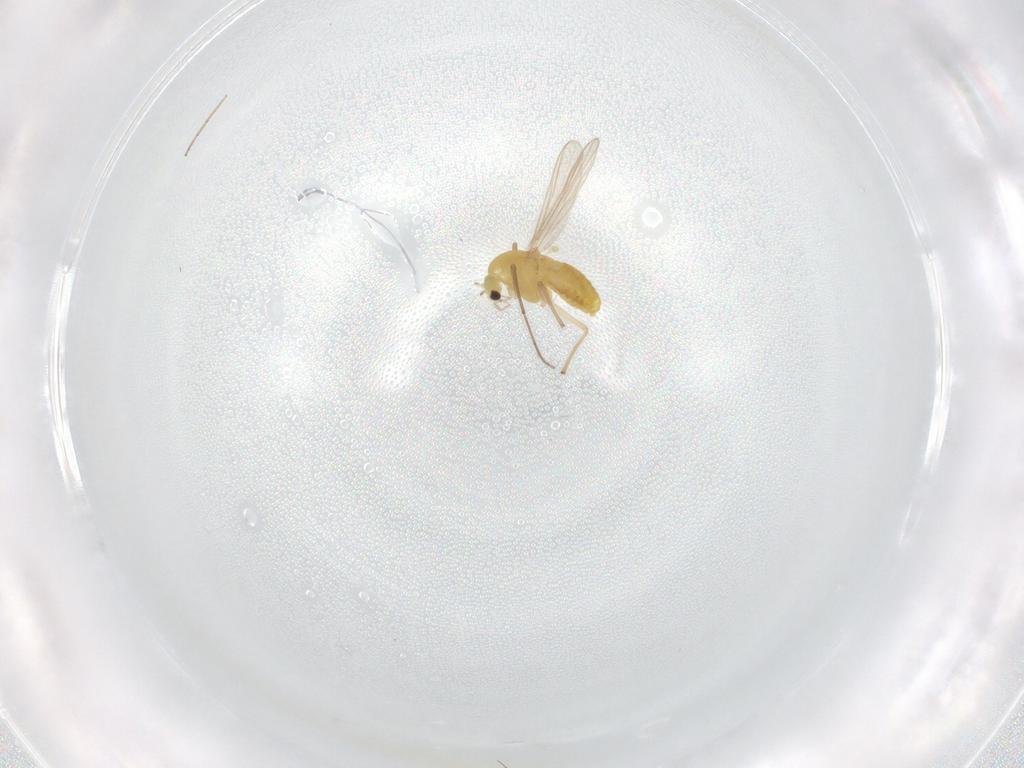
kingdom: Animalia
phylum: Arthropoda
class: Insecta
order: Diptera
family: Chironomidae
